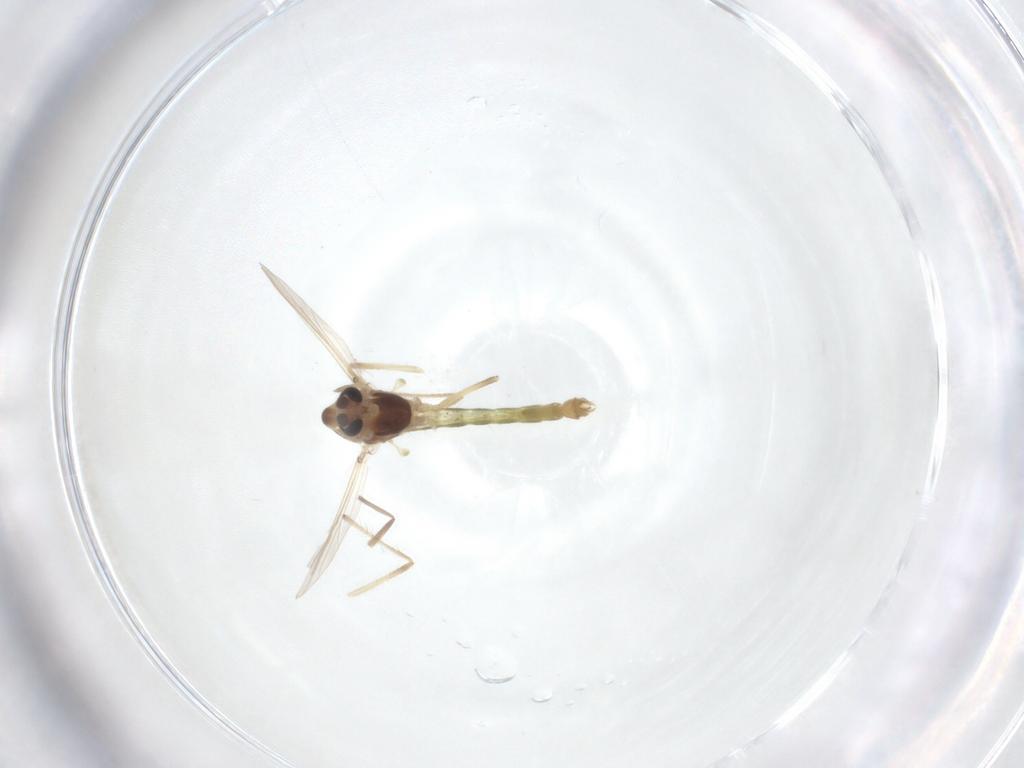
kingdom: Animalia
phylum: Arthropoda
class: Insecta
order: Diptera
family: Chironomidae
